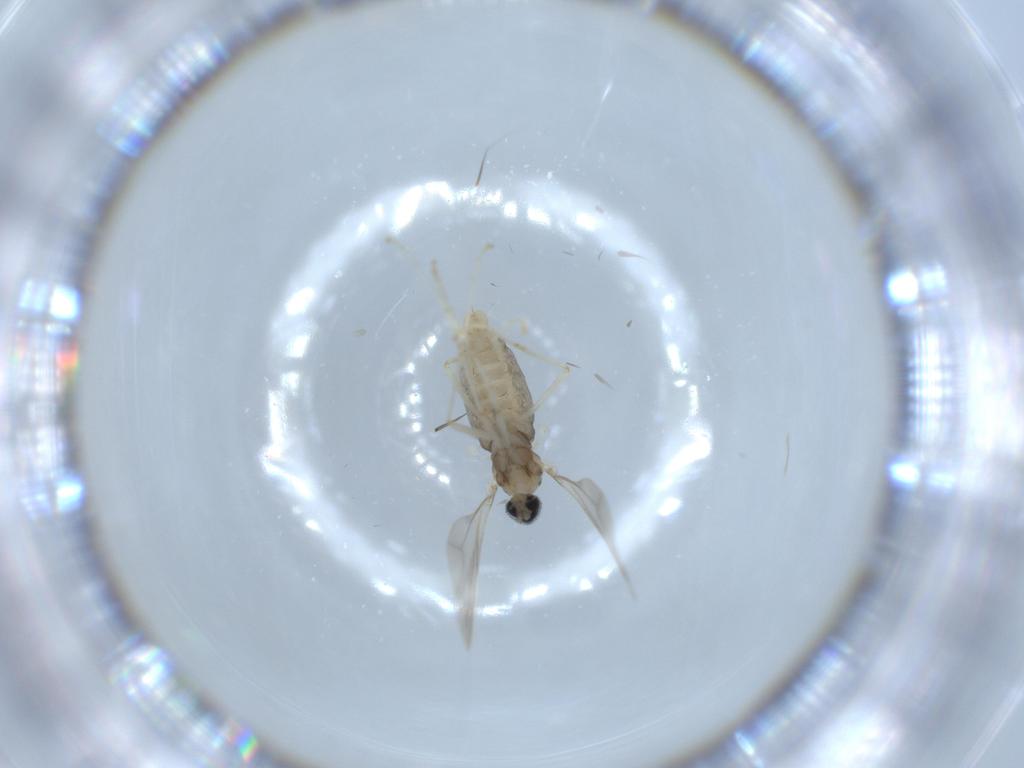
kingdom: Animalia
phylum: Arthropoda
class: Insecta
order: Diptera
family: Cecidomyiidae
